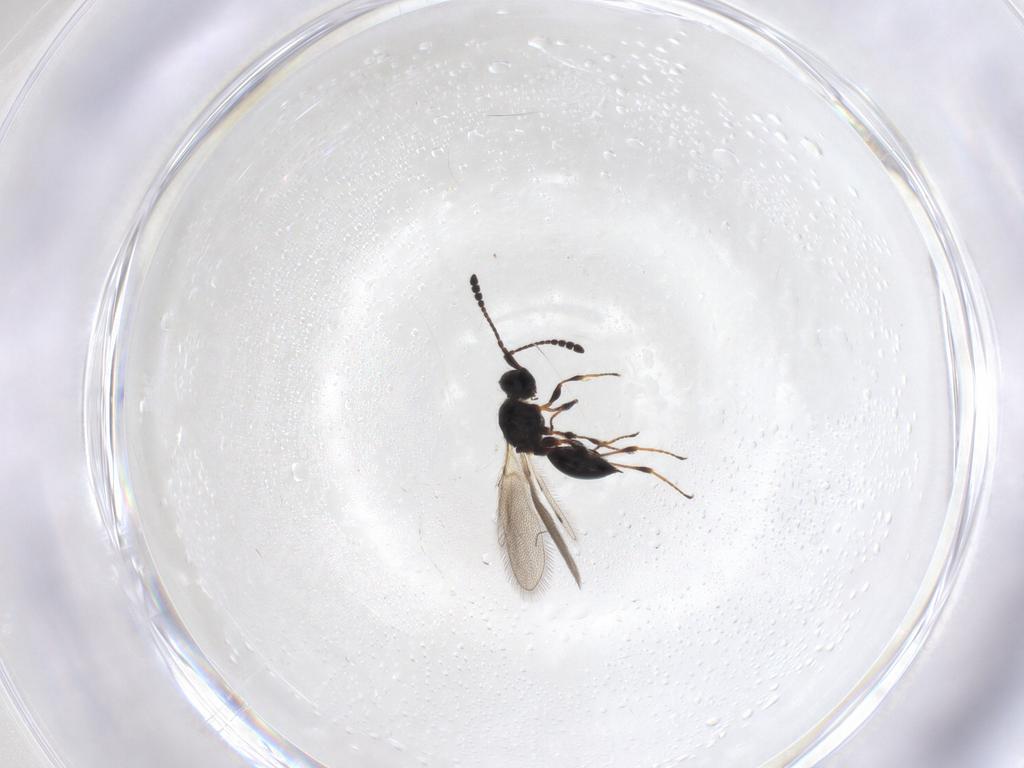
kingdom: Animalia
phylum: Arthropoda
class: Insecta
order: Hymenoptera
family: Diapriidae
